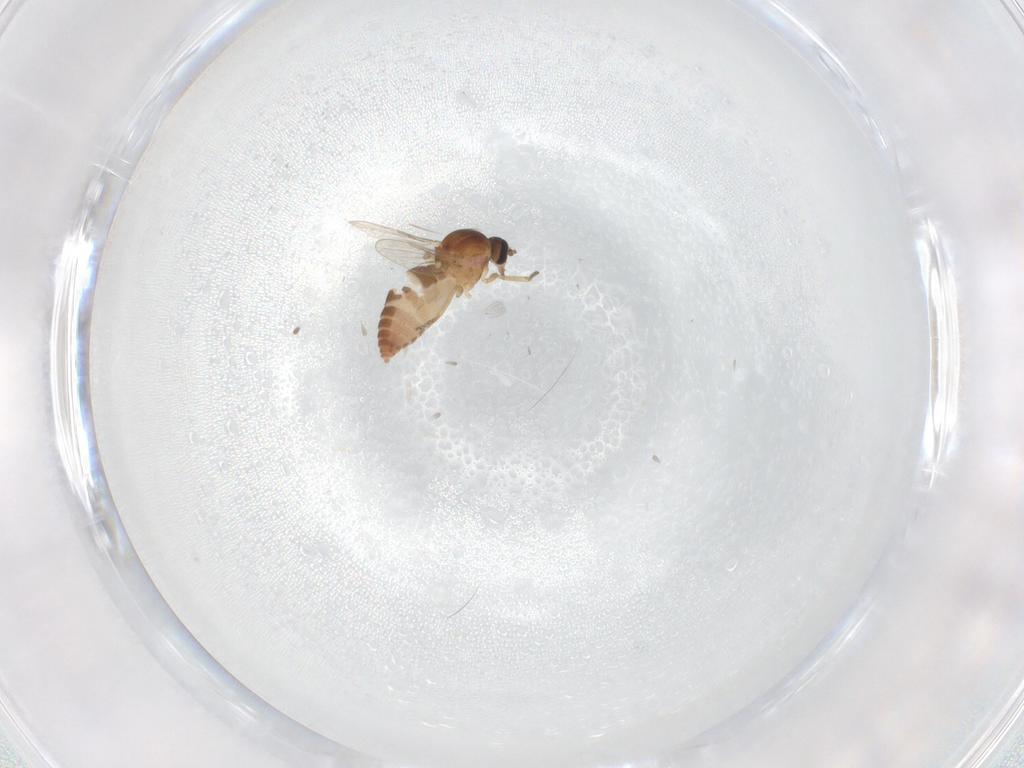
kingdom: Animalia
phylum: Arthropoda
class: Insecta
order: Diptera
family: Ceratopogonidae
